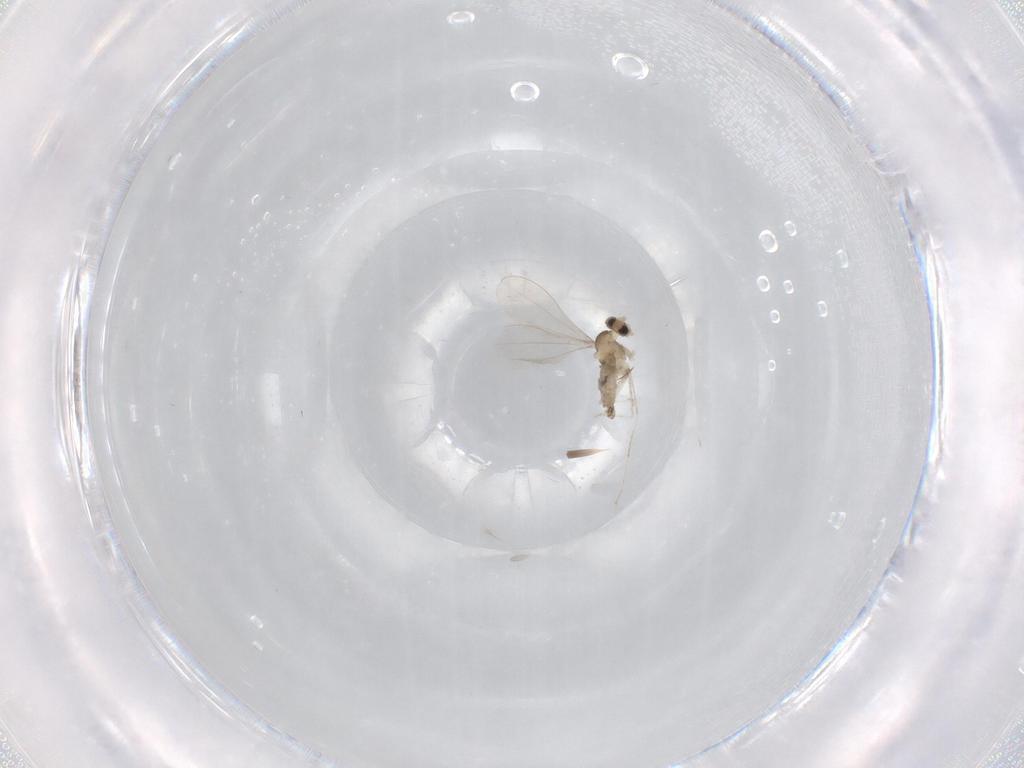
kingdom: Animalia
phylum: Arthropoda
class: Insecta
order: Diptera
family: Cecidomyiidae
